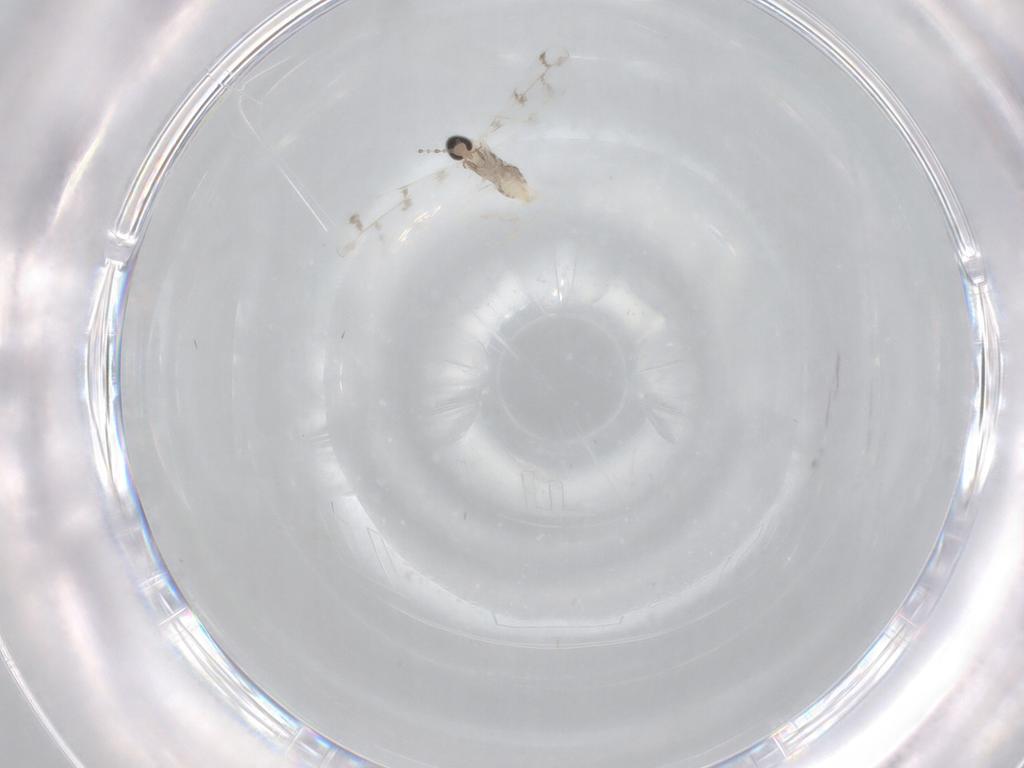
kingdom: Animalia
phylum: Arthropoda
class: Insecta
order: Diptera
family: Cecidomyiidae
